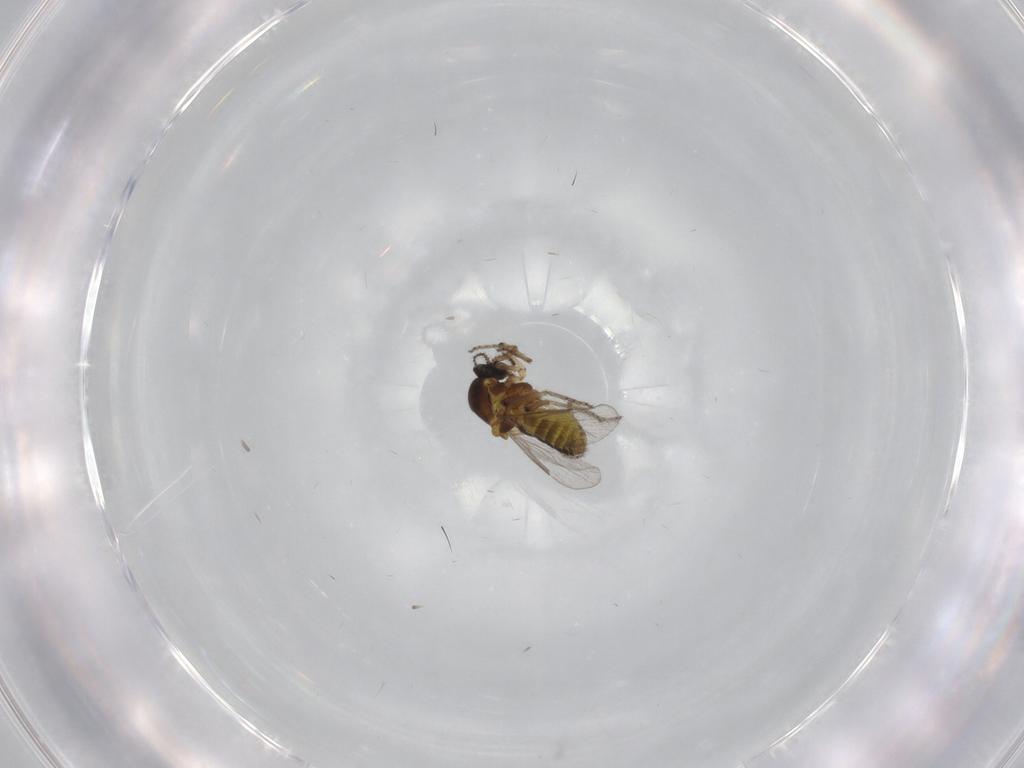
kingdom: Animalia
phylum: Arthropoda
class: Insecta
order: Diptera
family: Ceratopogonidae
